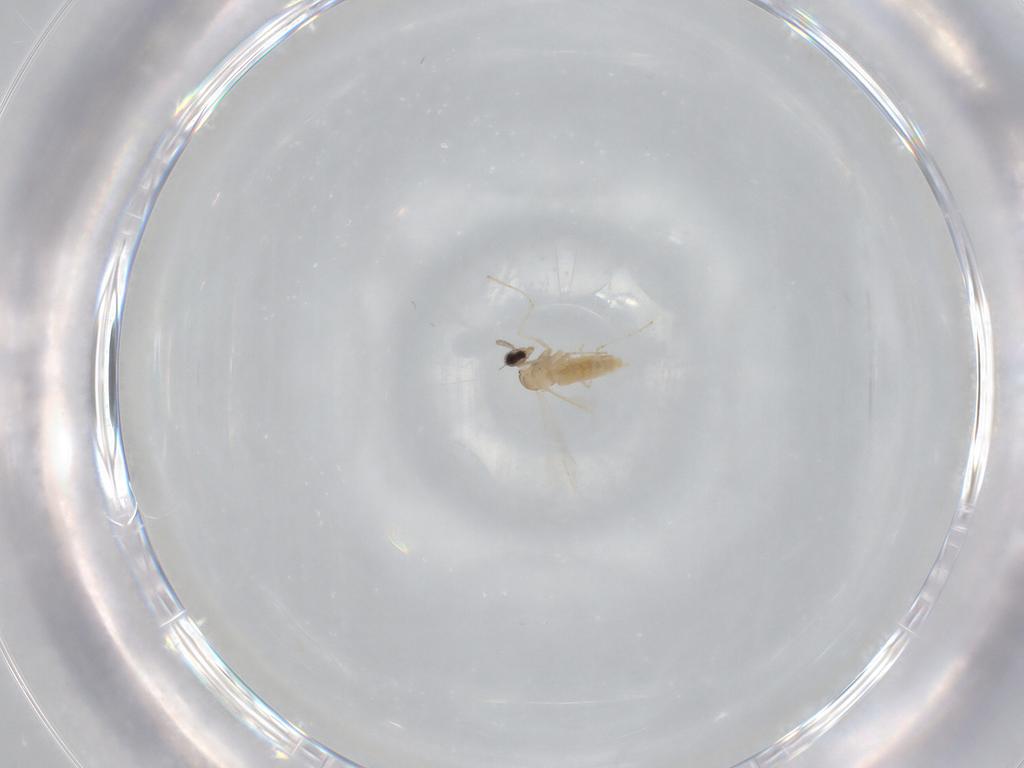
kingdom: Animalia
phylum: Arthropoda
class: Insecta
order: Diptera
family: Cecidomyiidae
